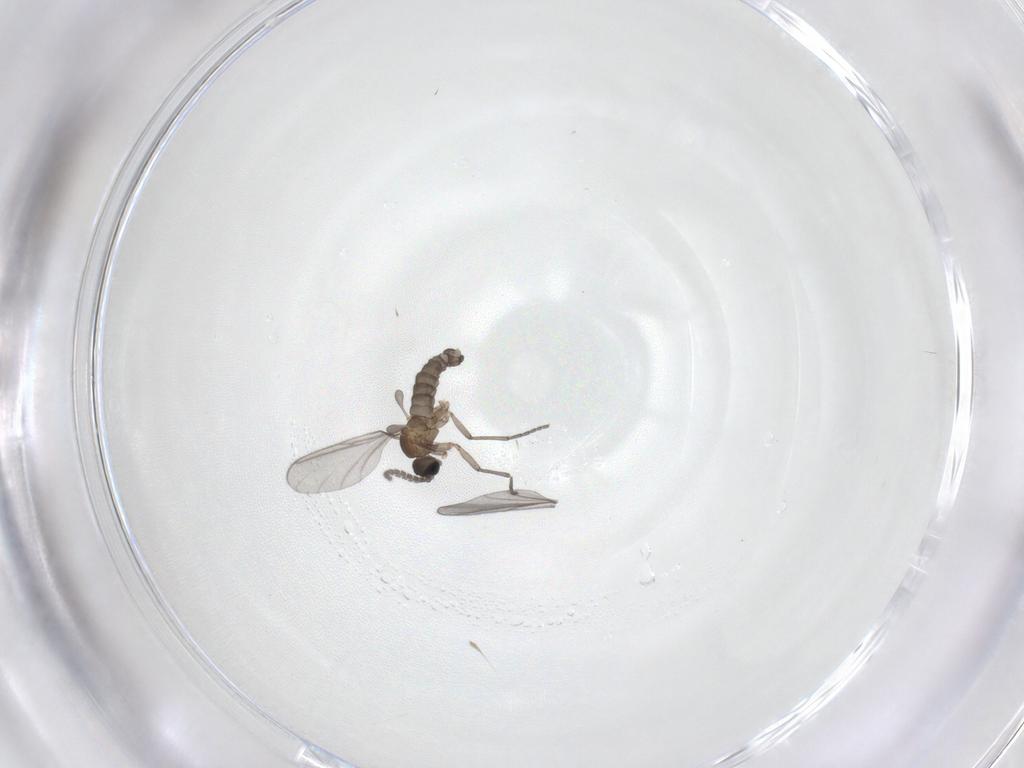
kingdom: Animalia
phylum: Arthropoda
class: Insecta
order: Diptera
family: Sciaridae
